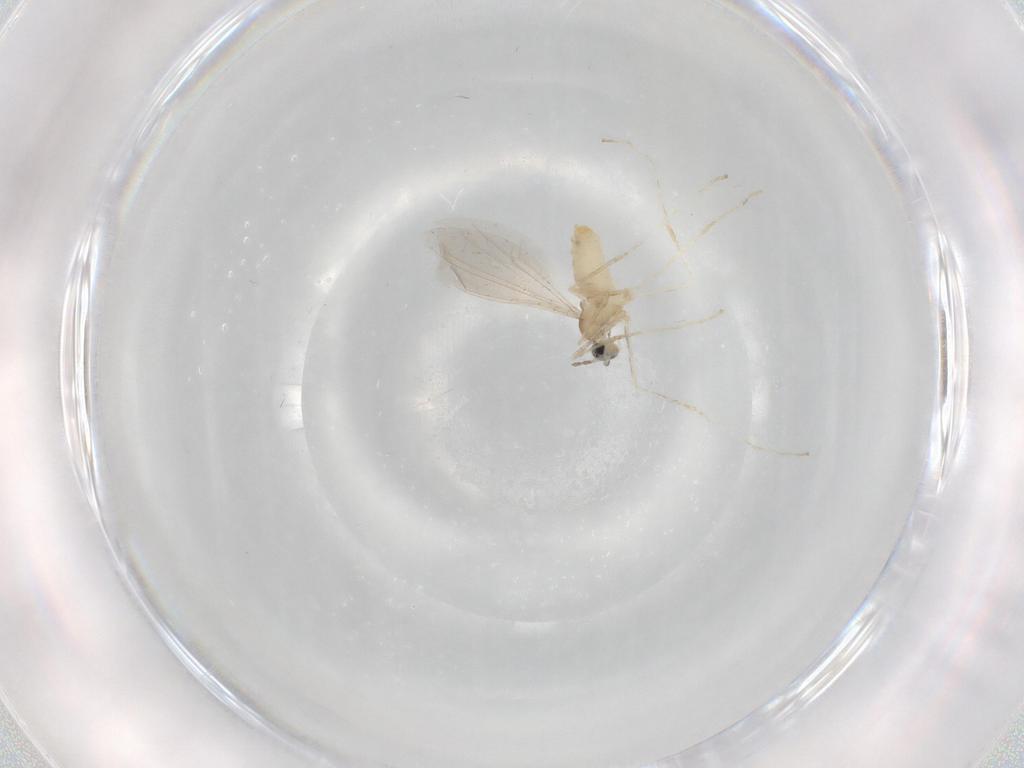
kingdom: Animalia
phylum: Arthropoda
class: Insecta
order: Diptera
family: Cecidomyiidae
